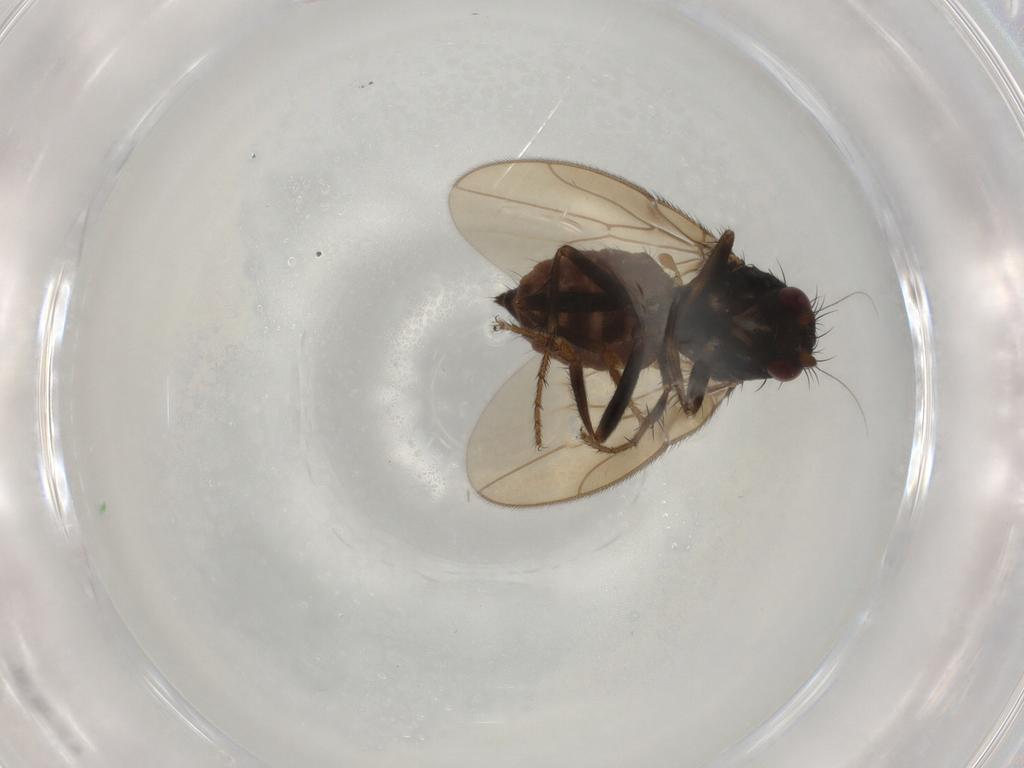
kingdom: Animalia
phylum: Arthropoda
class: Insecta
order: Diptera
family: Sphaeroceridae
